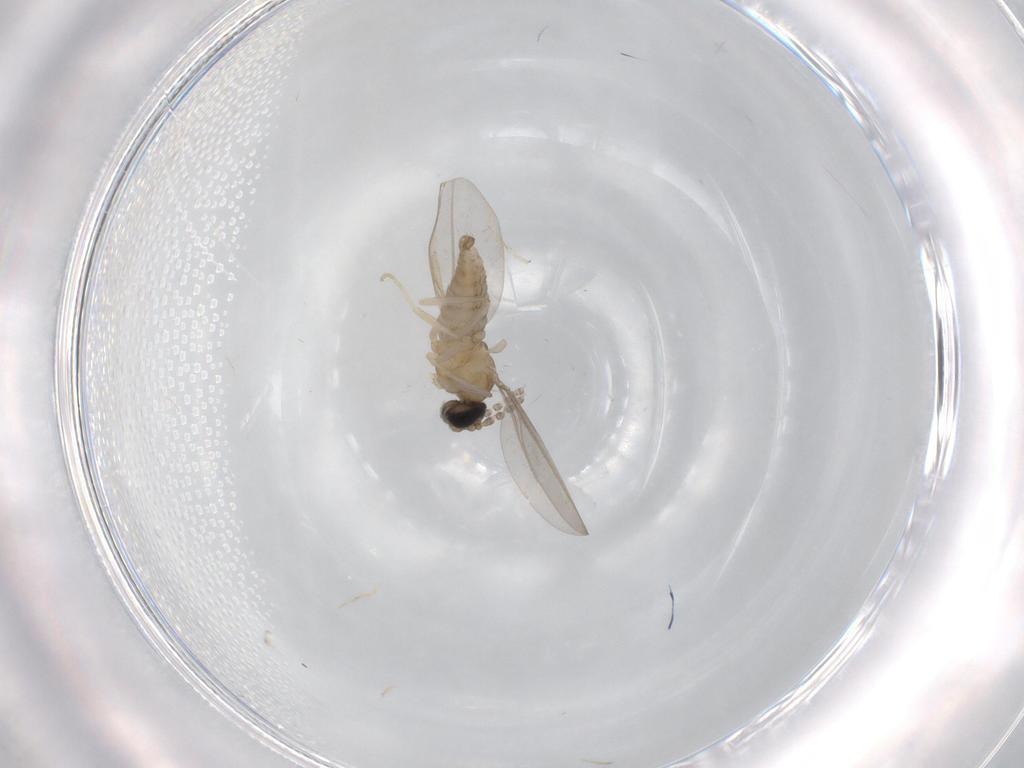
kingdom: Animalia
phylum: Arthropoda
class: Insecta
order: Diptera
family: Cecidomyiidae
